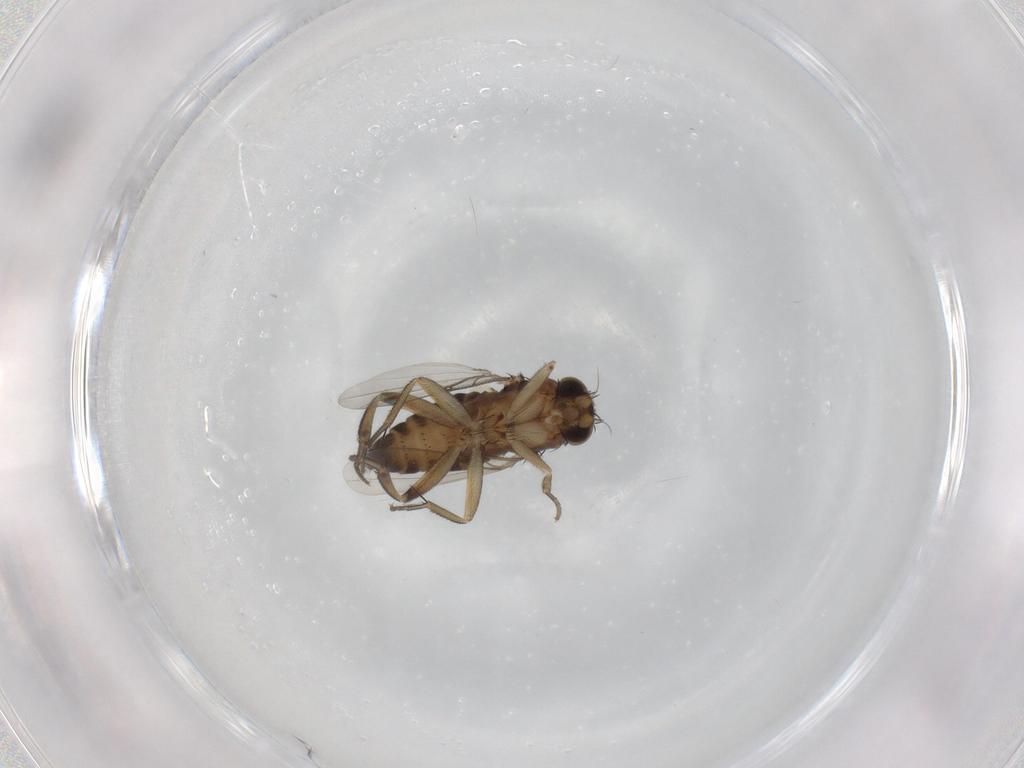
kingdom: Animalia
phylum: Arthropoda
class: Insecta
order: Diptera
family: Phoridae
